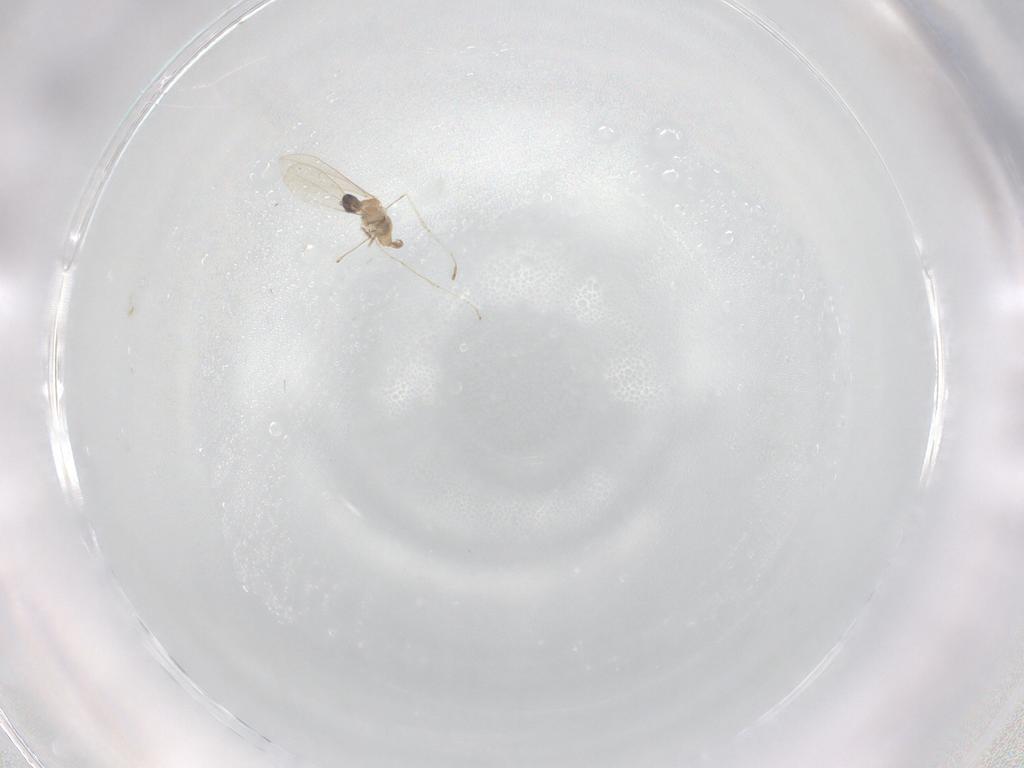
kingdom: Animalia
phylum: Arthropoda
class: Insecta
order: Diptera
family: Cecidomyiidae
